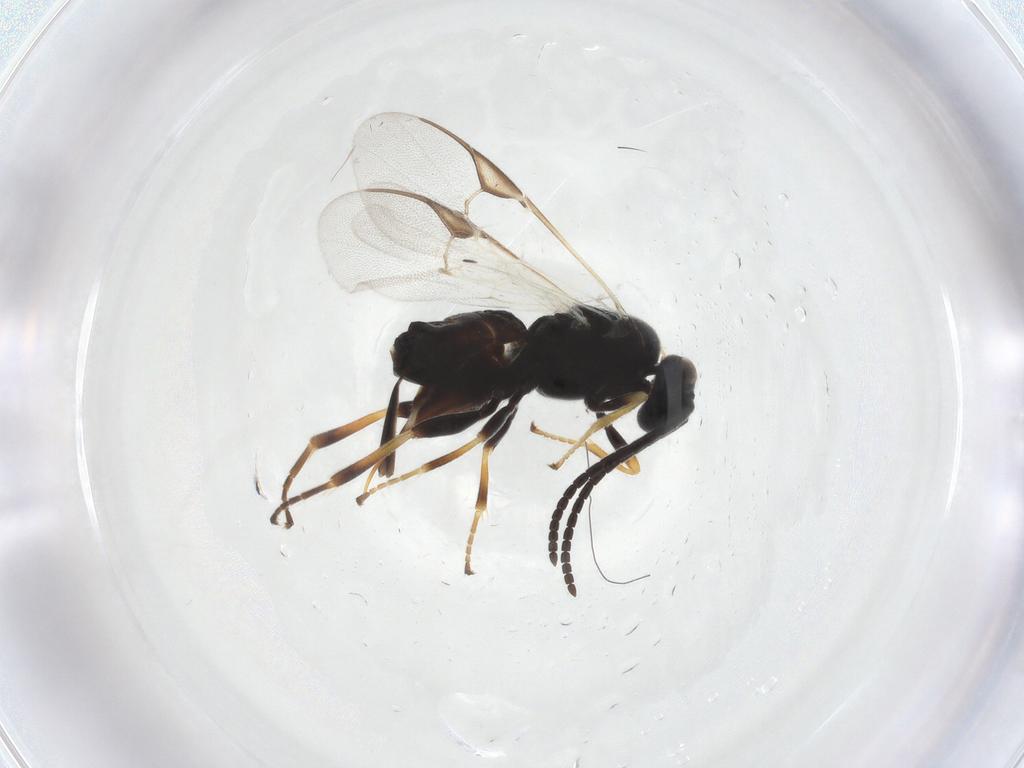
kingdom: Animalia
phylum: Arthropoda
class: Insecta
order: Hymenoptera
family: Braconidae
